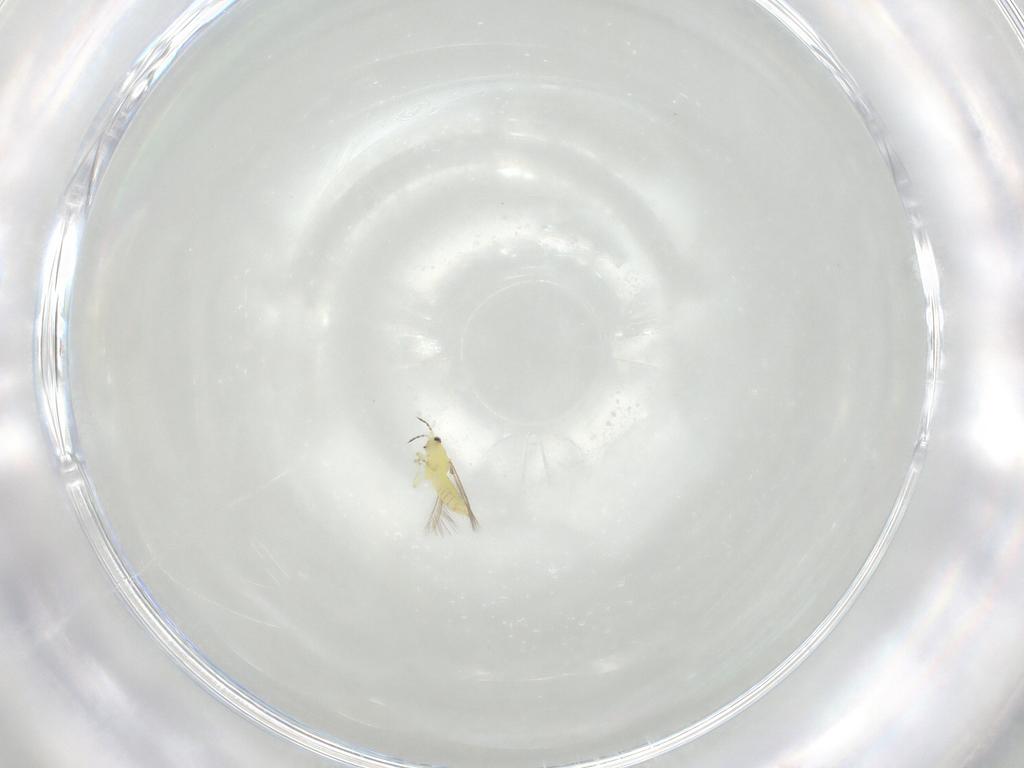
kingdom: Animalia
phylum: Arthropoda
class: Insecta
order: Thysanoptera
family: Thripidae
